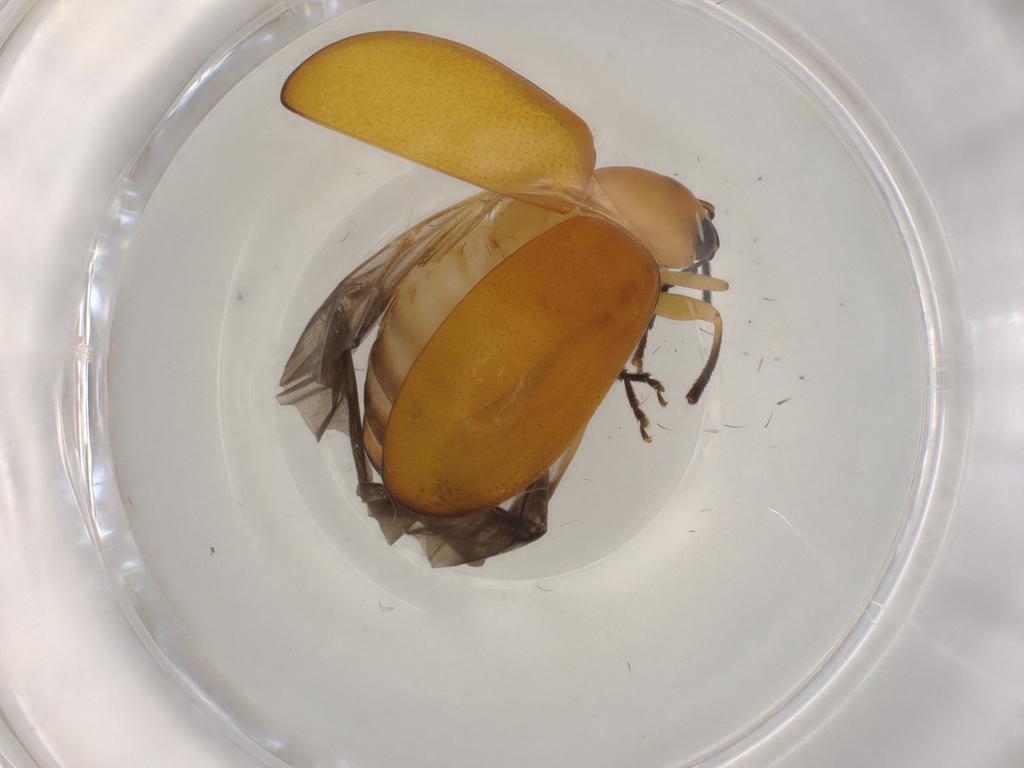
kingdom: Animalia
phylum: Arthropoda
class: Insecta
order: Coleoptera
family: Chrysomelidae
